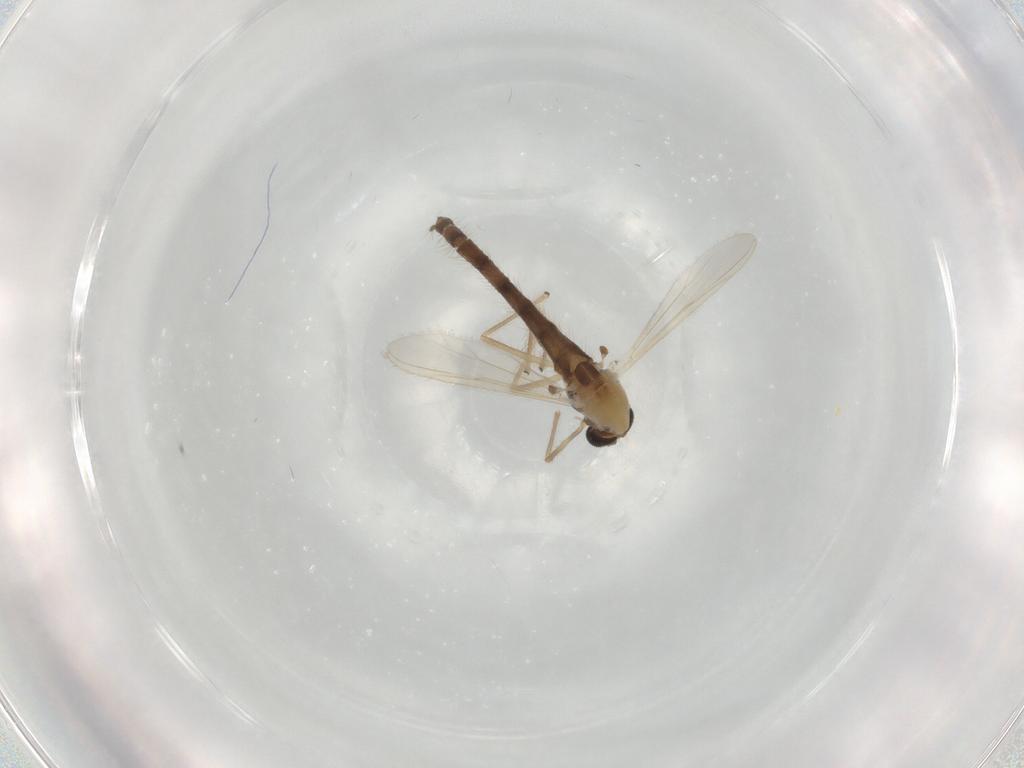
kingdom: Animalia
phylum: Arthropoda
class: Insecta
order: Diptera
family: Chironomidae
